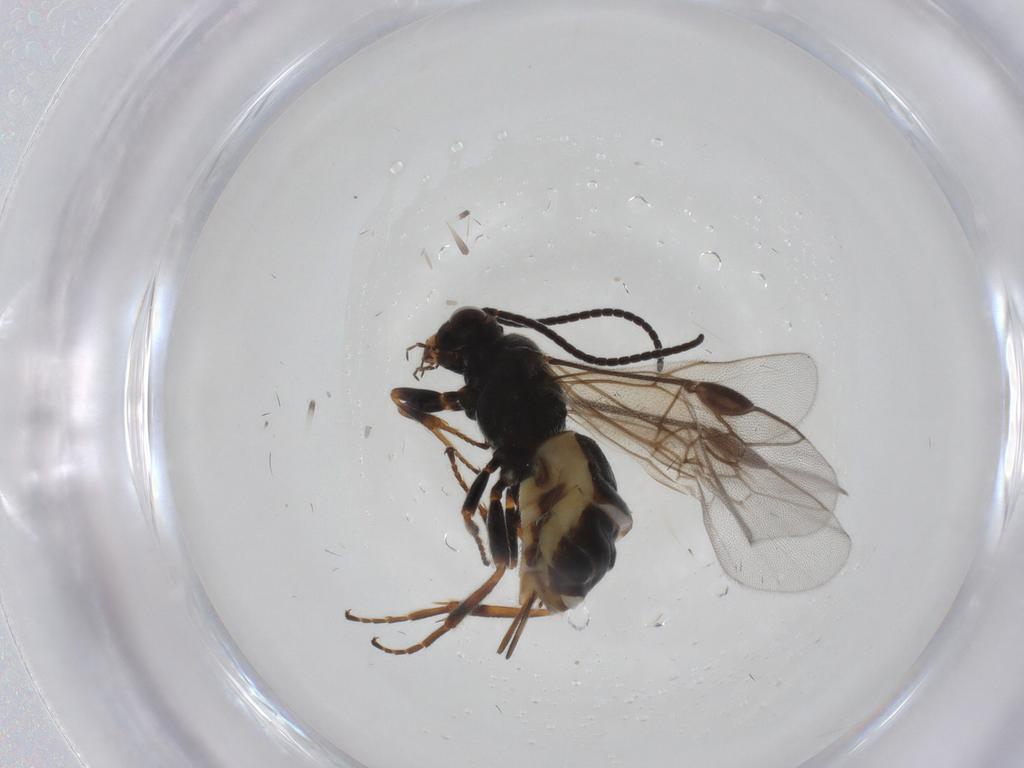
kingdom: Animalia
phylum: Arthropoda
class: Insecta
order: Hymenoptera
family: Braconidae
